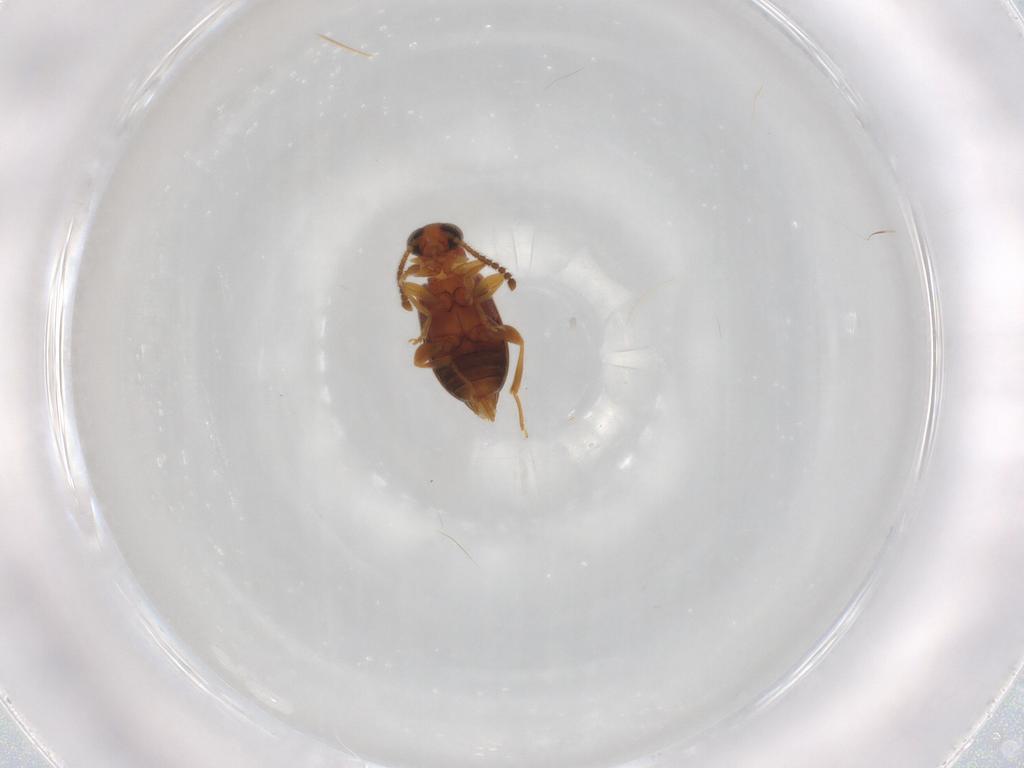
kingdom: Animalia
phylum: Arthropoda
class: Insecta
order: Coleoptera
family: Aderidae
